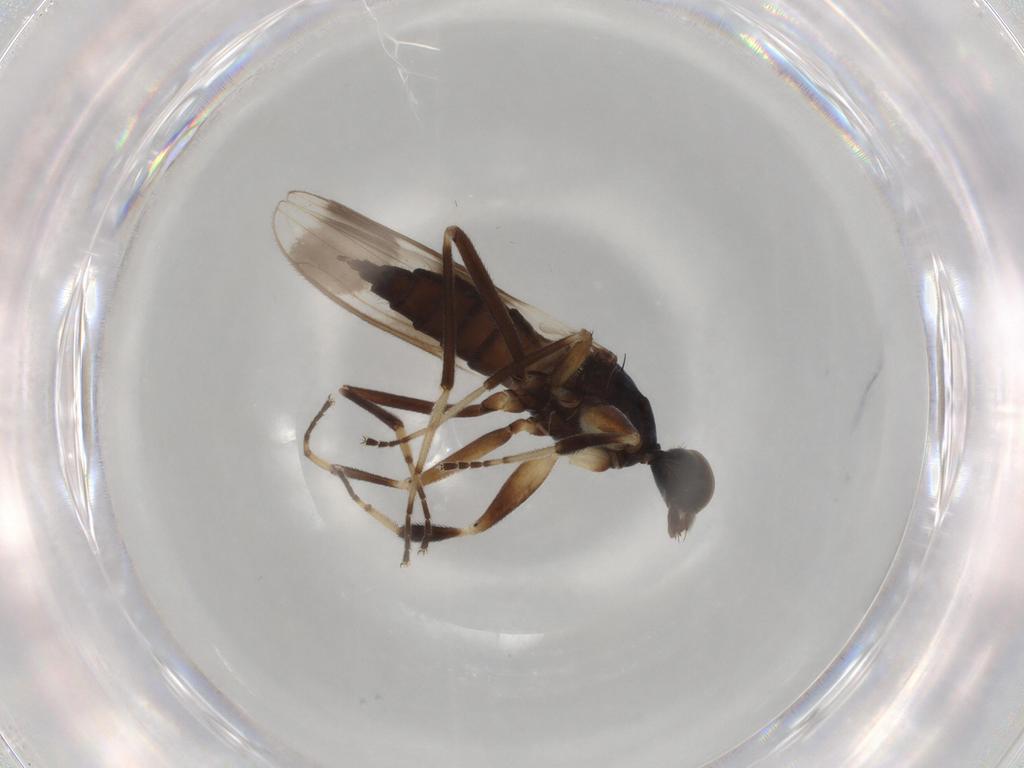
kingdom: Animalia
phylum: Arthropoda
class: Insecta
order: Diptera
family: Hybotidae
